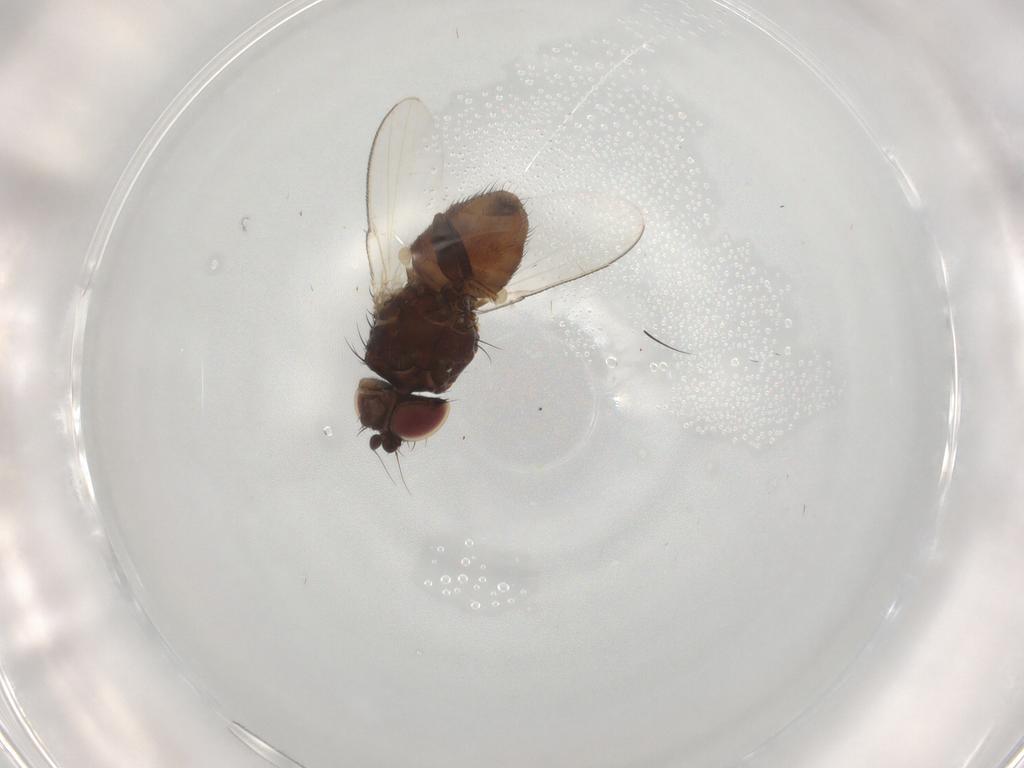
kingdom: Animalia
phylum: Arthropoda
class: Insecta
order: Diptera
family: Milichiidae
